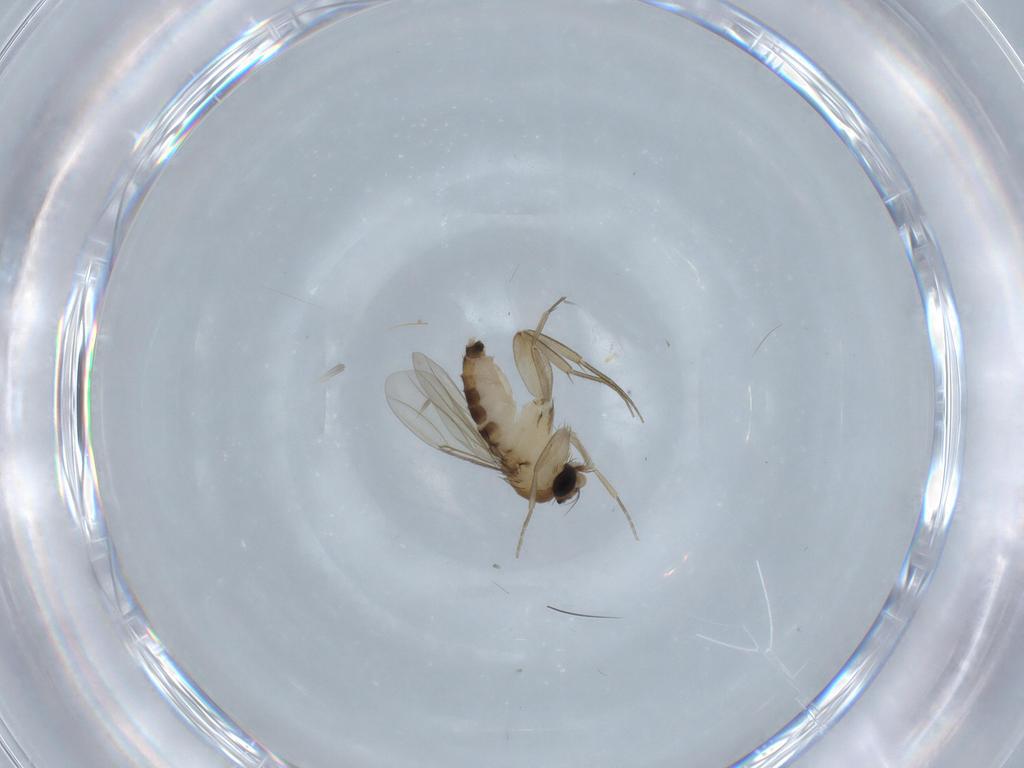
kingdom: Animalia
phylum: Arthropoda
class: Insecta
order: Diptera
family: Cecidomyiidae
